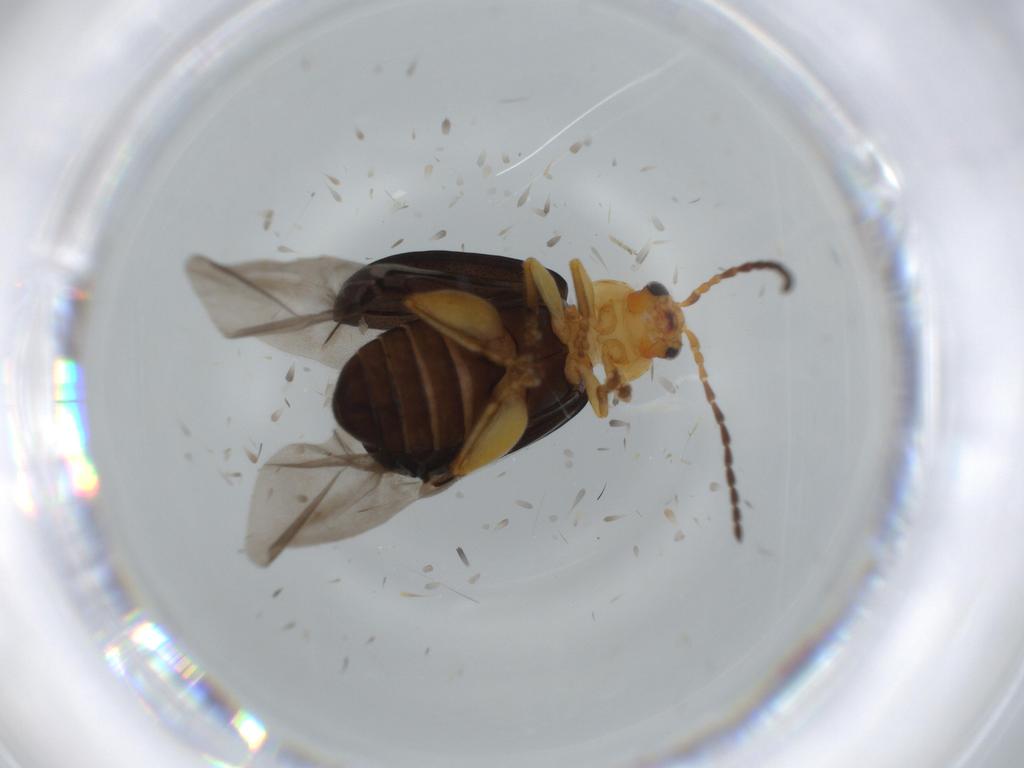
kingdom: Animalia
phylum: Arthropoda
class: Insecta
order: Coleoptera
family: Chrysomelidae
